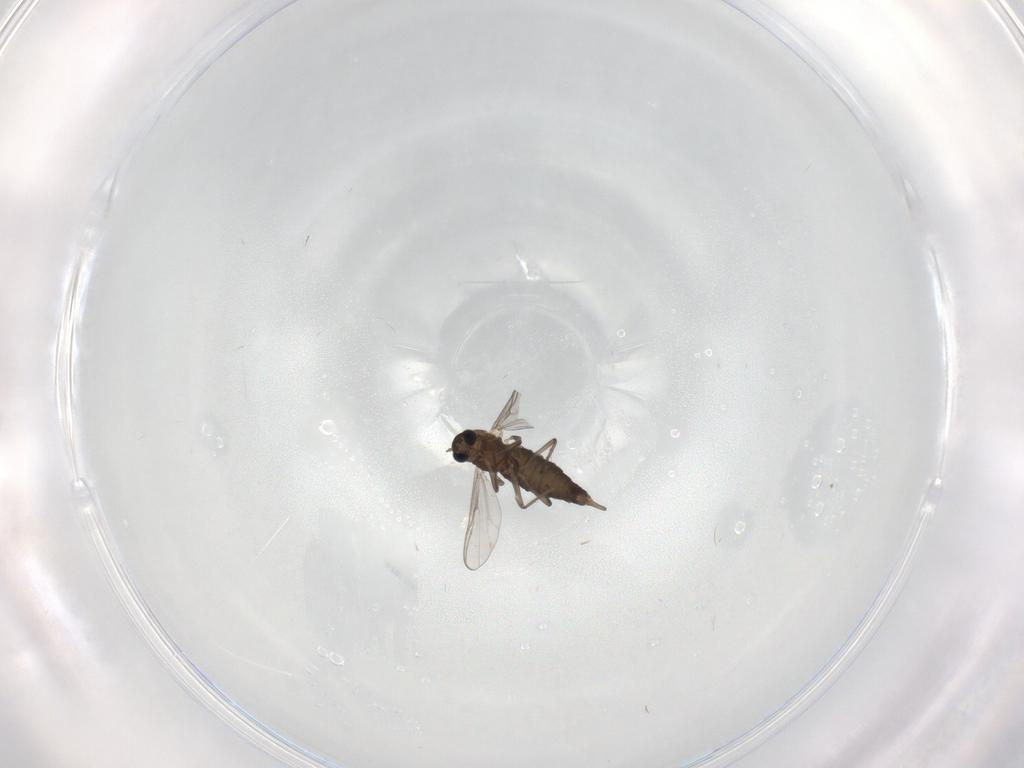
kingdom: Animalia
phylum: Arthropoda
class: Insecta
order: Diptera
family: Chironomidae
